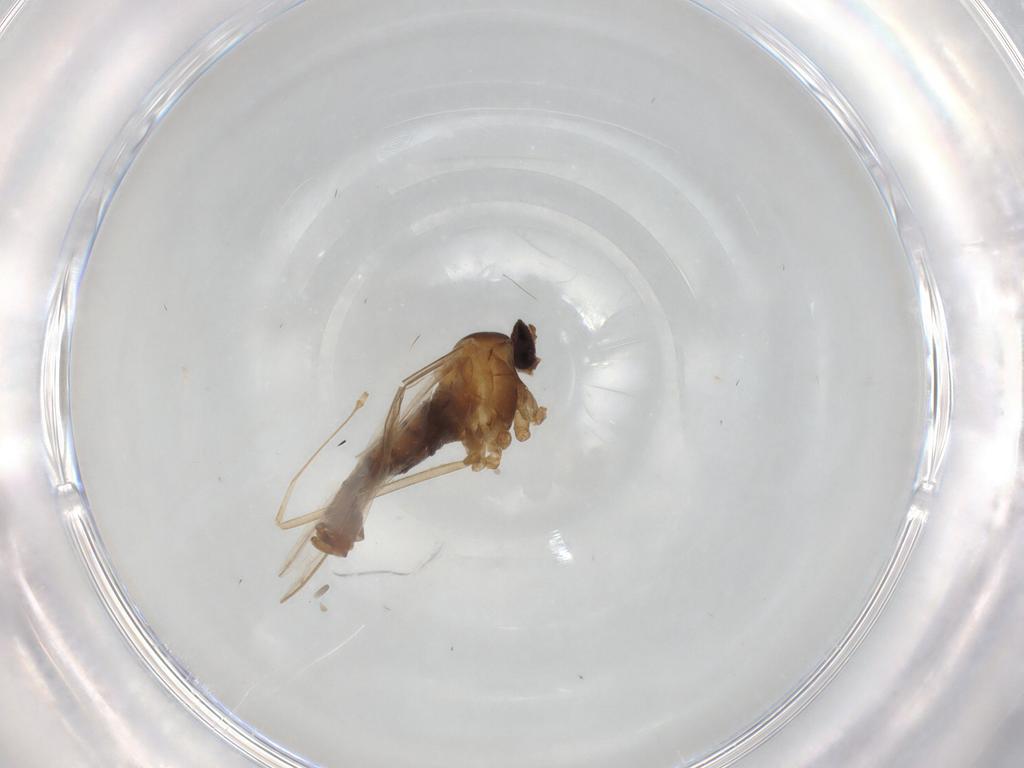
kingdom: Animalia
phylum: Arthropoda
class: Insecta
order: Diptera
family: Cecidomyiidae
